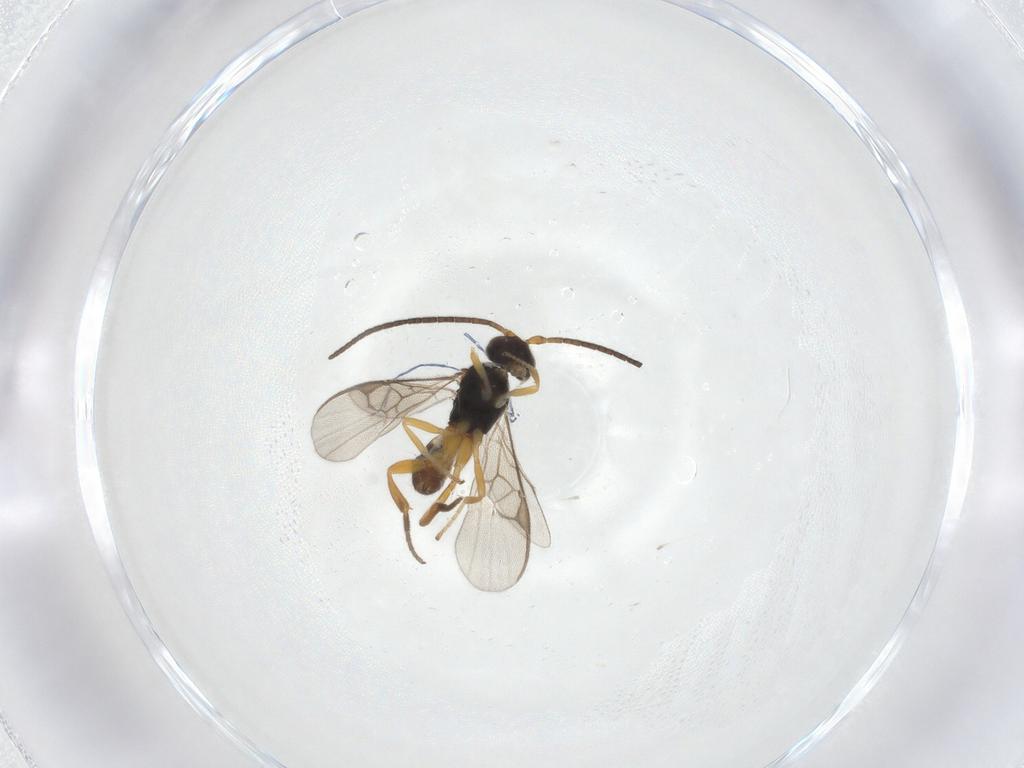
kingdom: Animalia
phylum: Arthropoda
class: Insecta
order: Hymenoptera
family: Braconidae
